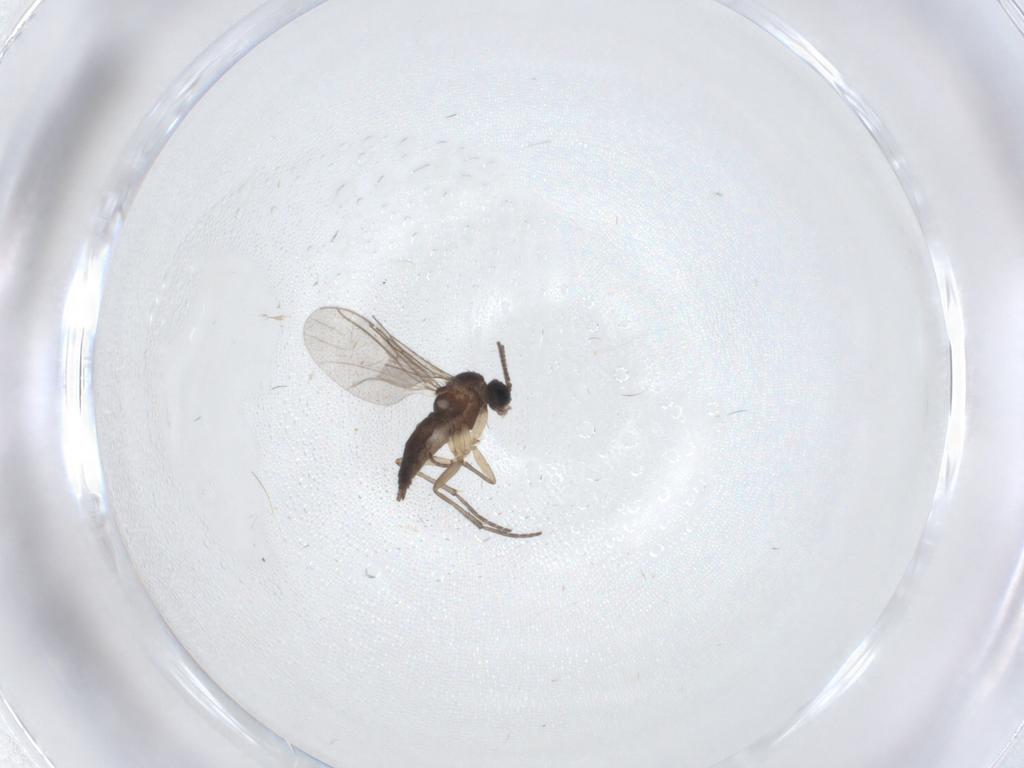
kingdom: Animalia
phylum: Arthropoda
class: Insecta
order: Diptera
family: Sciaridae
